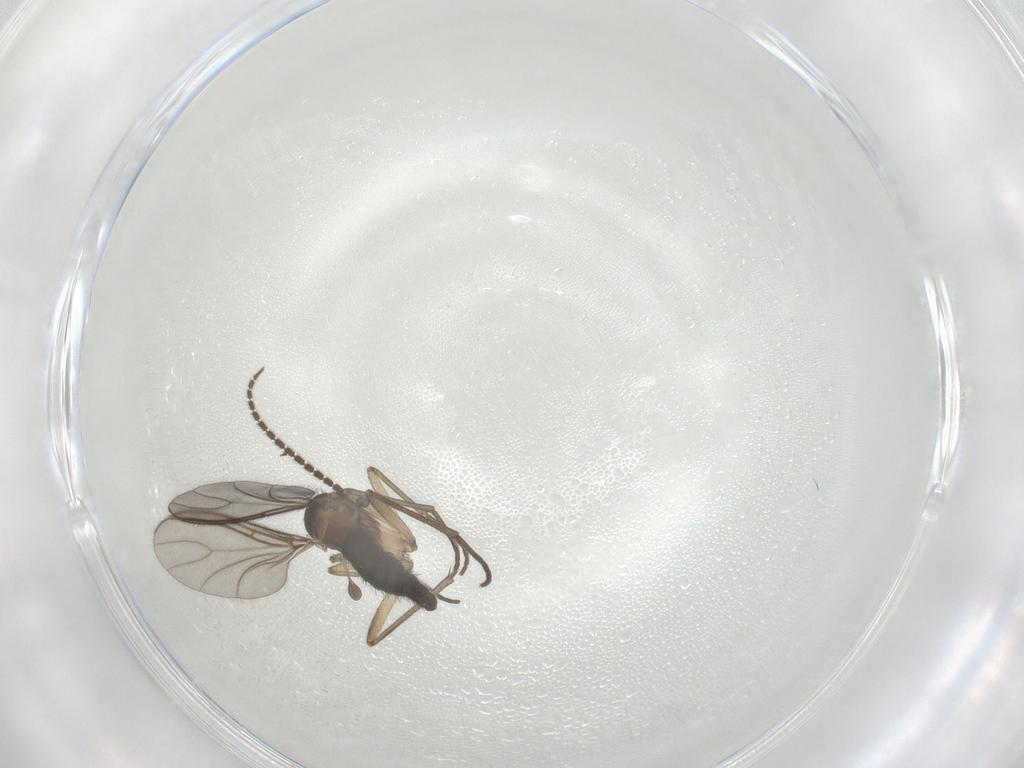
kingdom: Animalia
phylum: Arthropoda
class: Insecta
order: Diptera
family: Sciaridae
